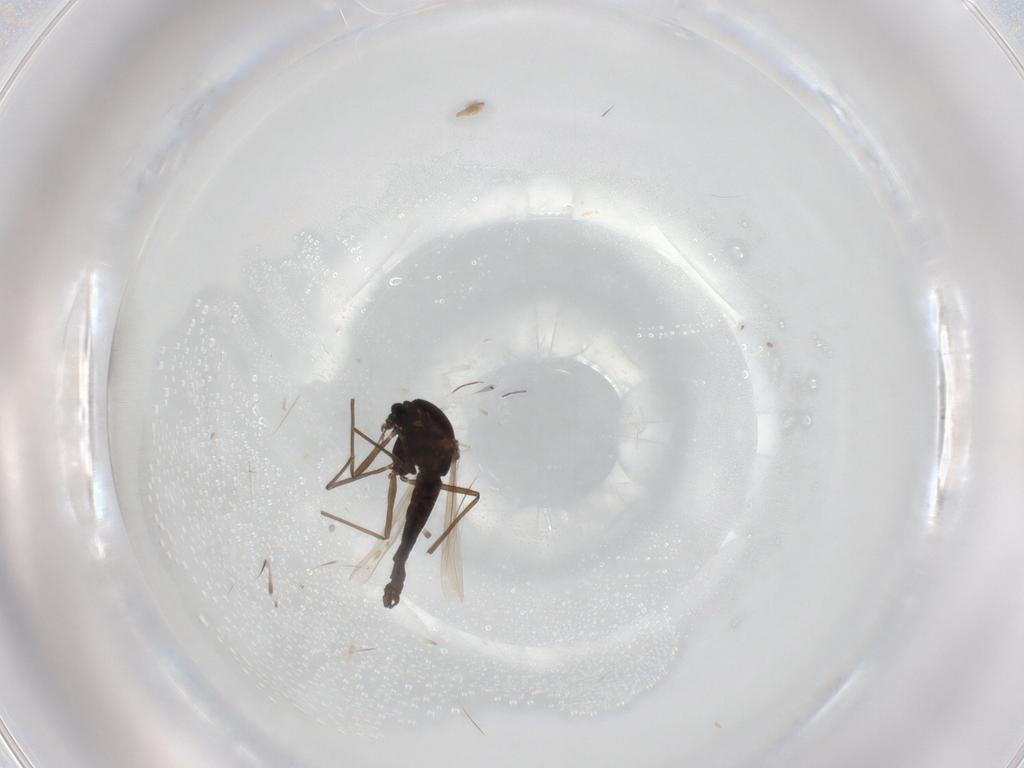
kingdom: Animalia
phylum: Arthropoda
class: Insecta
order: Diptera
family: Chironomidae
